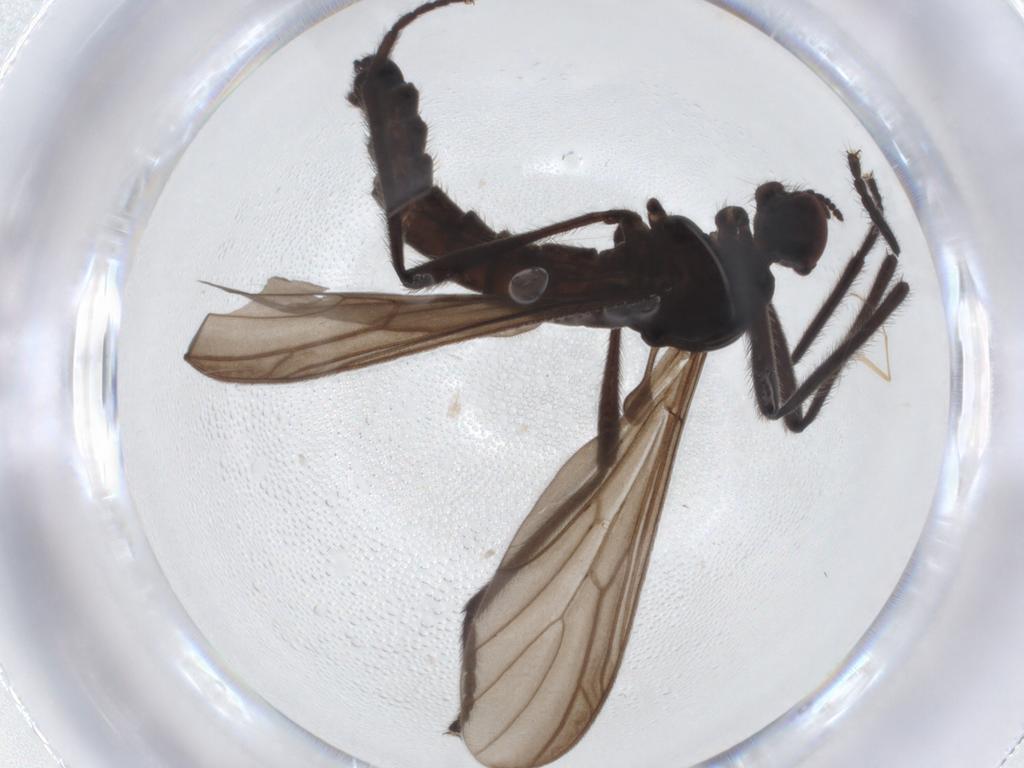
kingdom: Animalia
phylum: Arthropoda
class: Insecta
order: Diptera
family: Bibionidae
